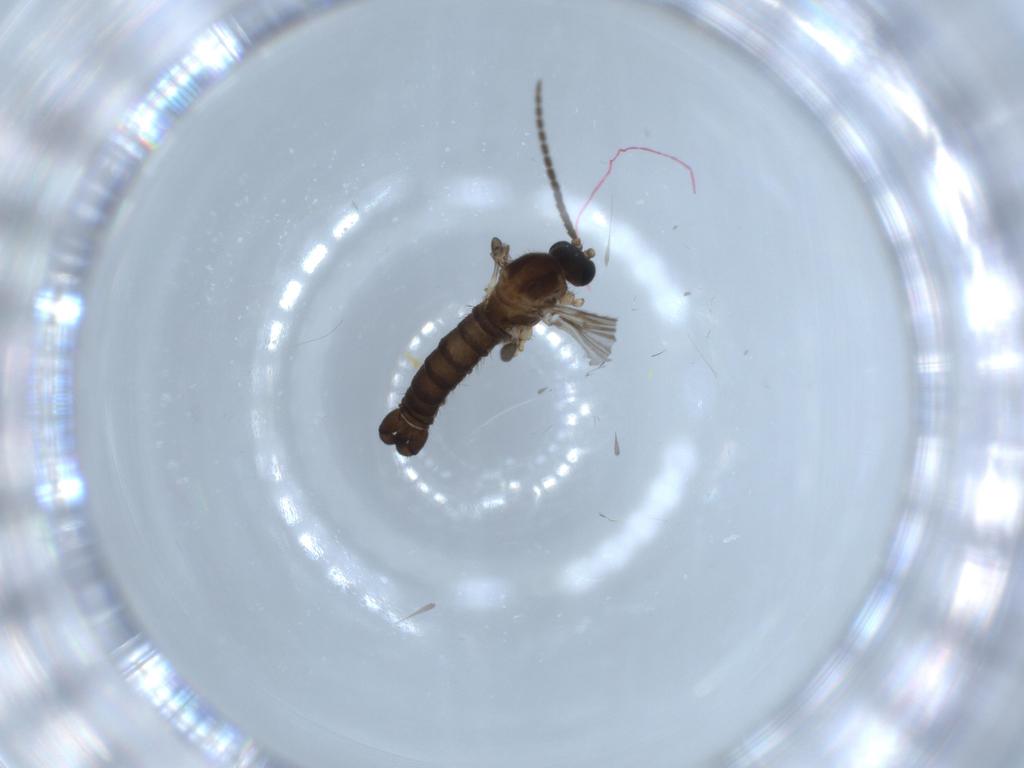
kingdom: Animalia
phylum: Arthropoda
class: Insecta
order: Diptera
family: Sciaridae
